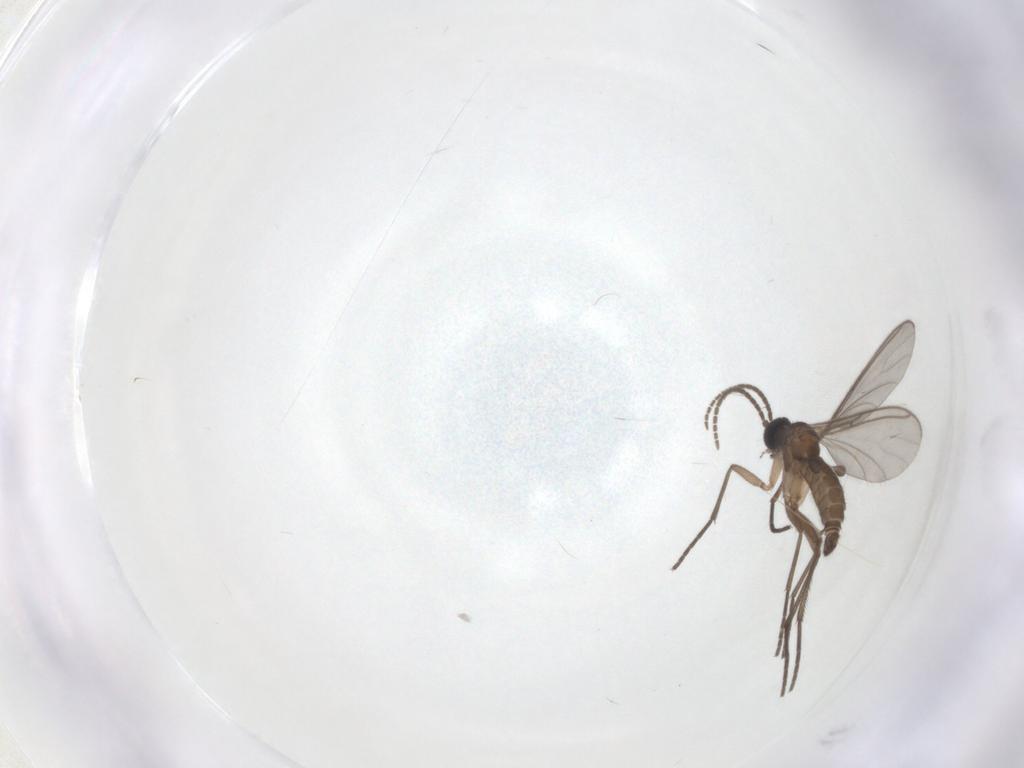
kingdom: Animalia
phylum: Arthropoda
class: Insecta
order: Diptera
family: Sciaridae
